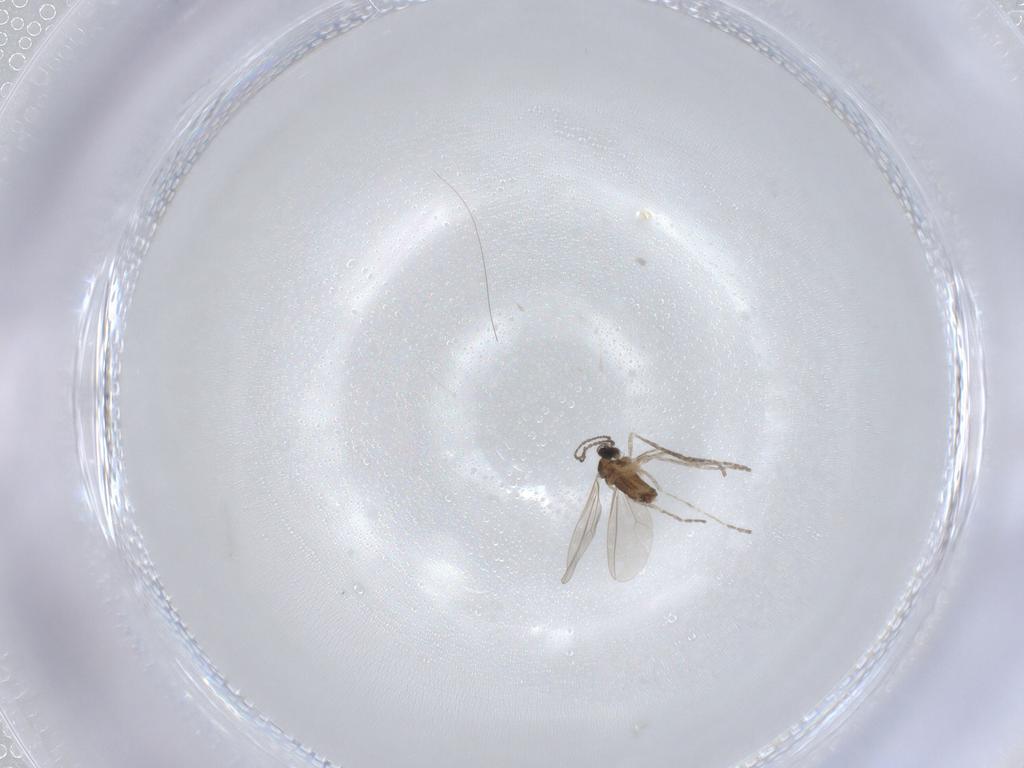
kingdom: Animalia
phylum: Arthropoda
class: Insecta
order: Diptera
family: Cecidomyiidae
